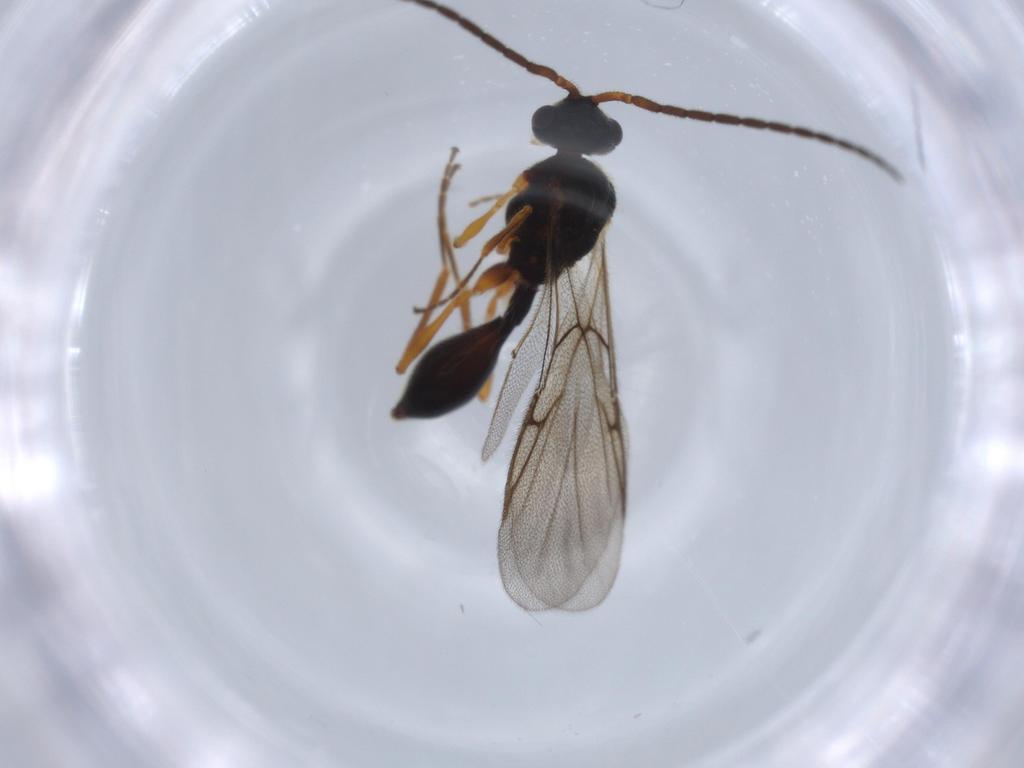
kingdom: Animalia
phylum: Arthropoda
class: Insecta
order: Hymenoptera
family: Diapriidae
